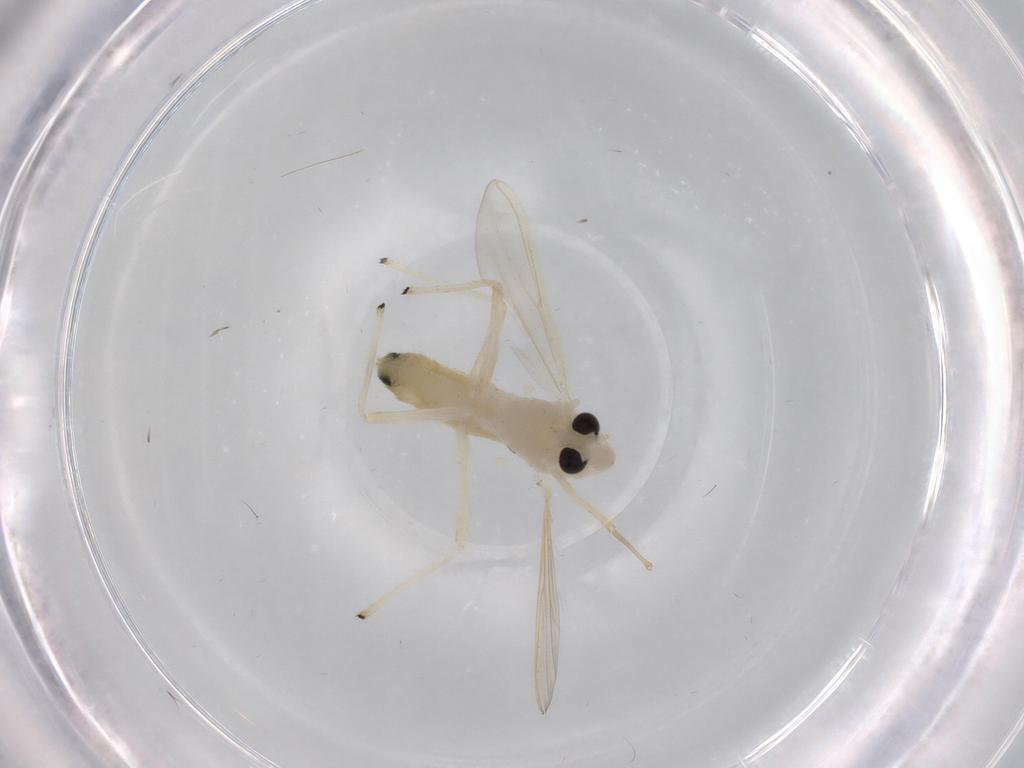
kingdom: Animalia
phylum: Arthropoda
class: Insecta
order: Diptera
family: Chironomidae
